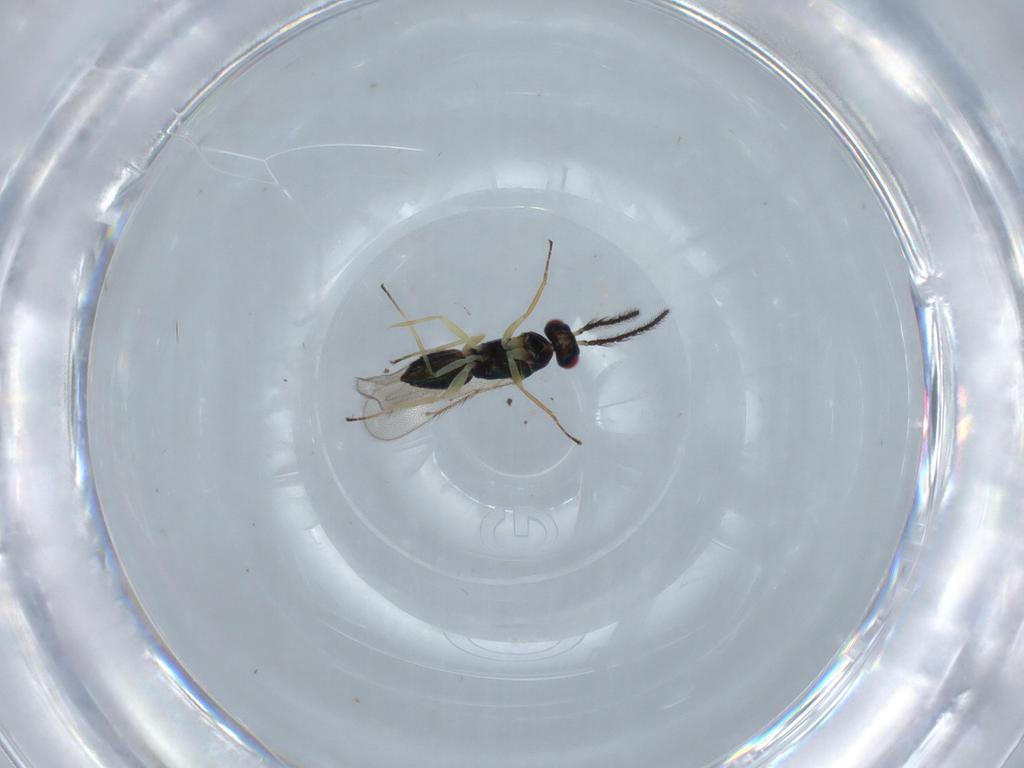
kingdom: Animalia
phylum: Arthropoda
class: Insecta
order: Hymenoptera
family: Eulophidae
